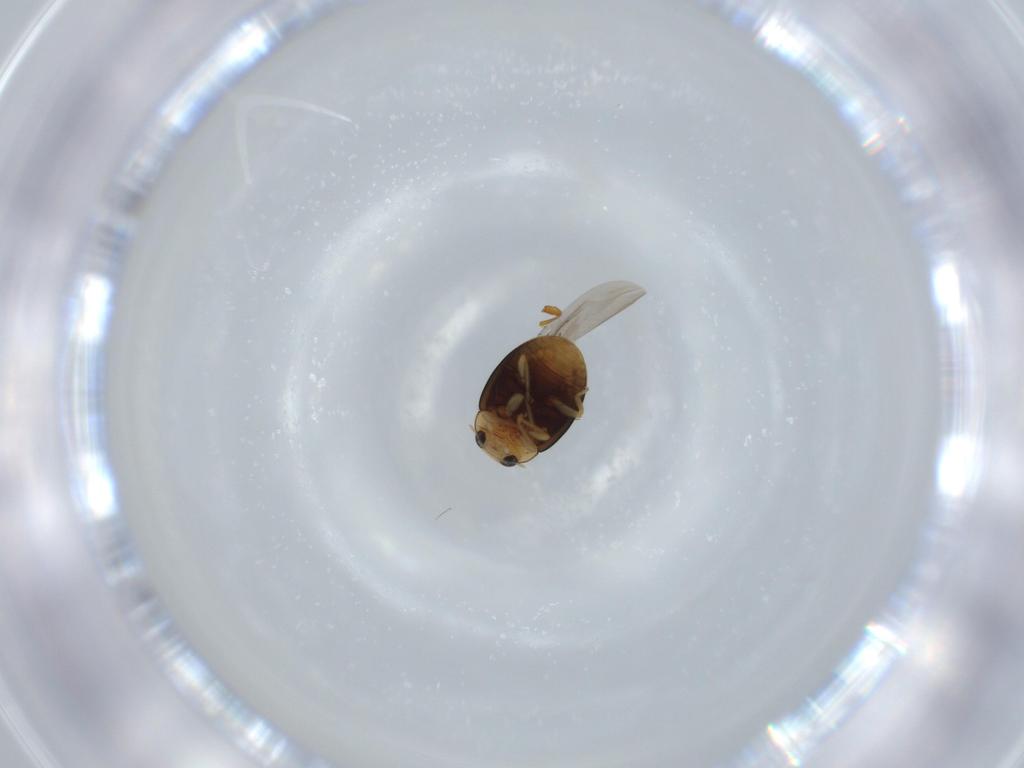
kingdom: Animalia
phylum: Arthropoda
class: Insecta
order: Coleoptera
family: Coccinellidae
